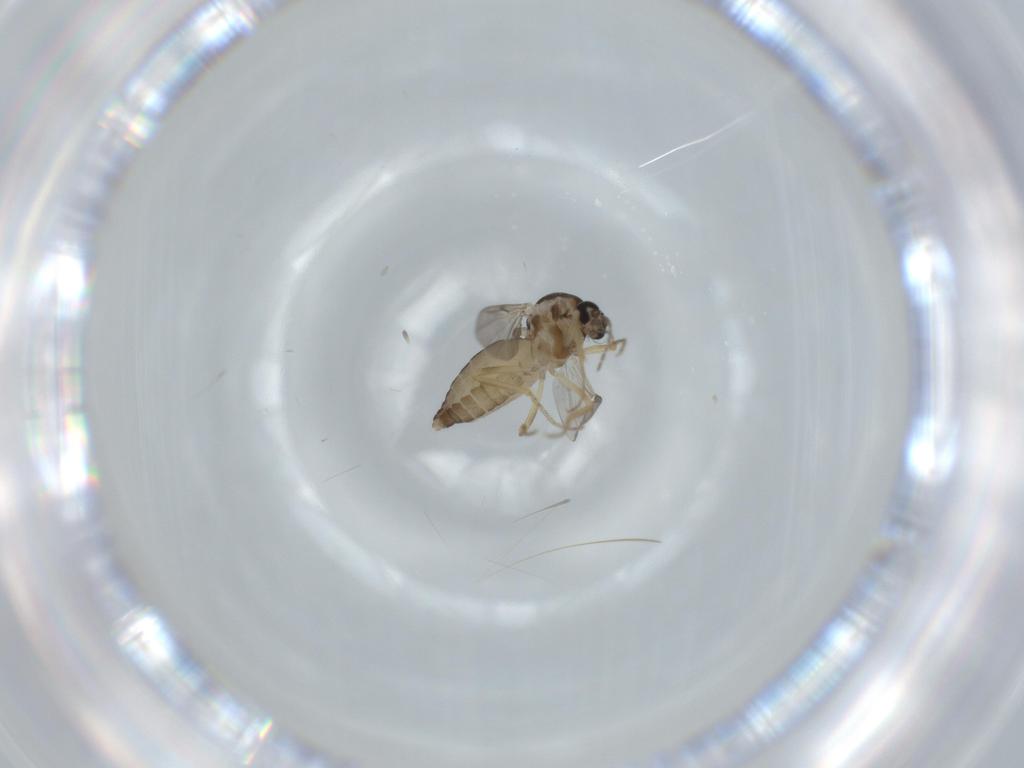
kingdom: Animalia
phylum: Arthropoda
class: Insecta
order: Diptera
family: Ceratopogonidae
